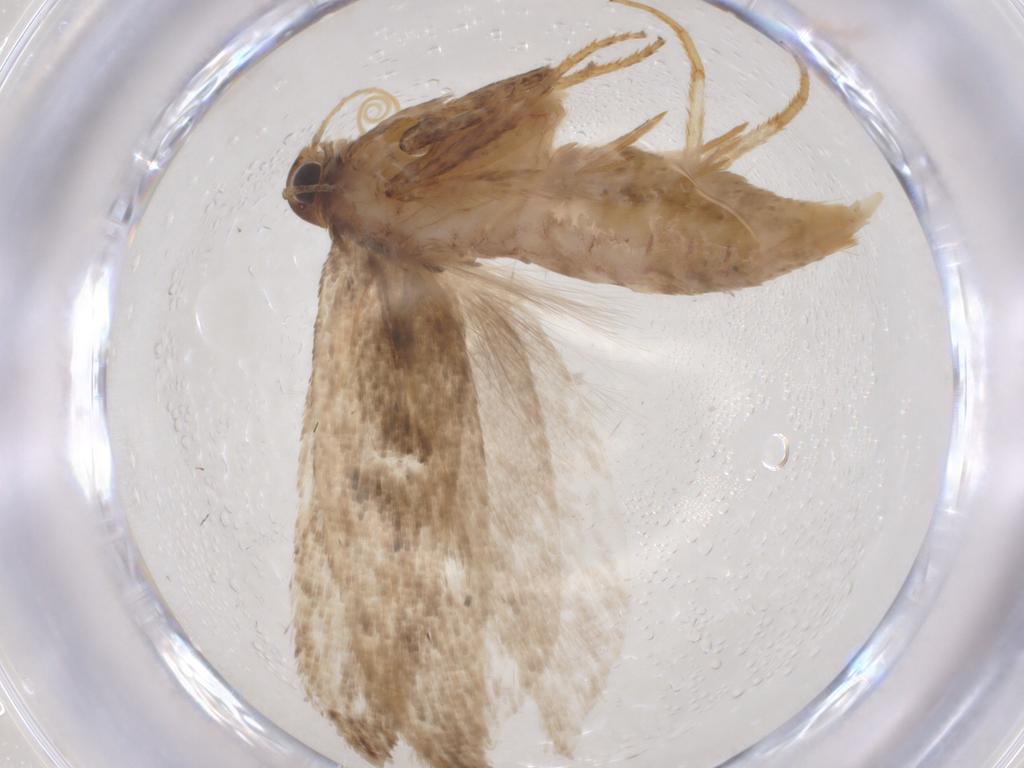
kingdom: Animalia
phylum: Arthropoda
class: Insecta
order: Lepidoptera
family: Gelechiidae
